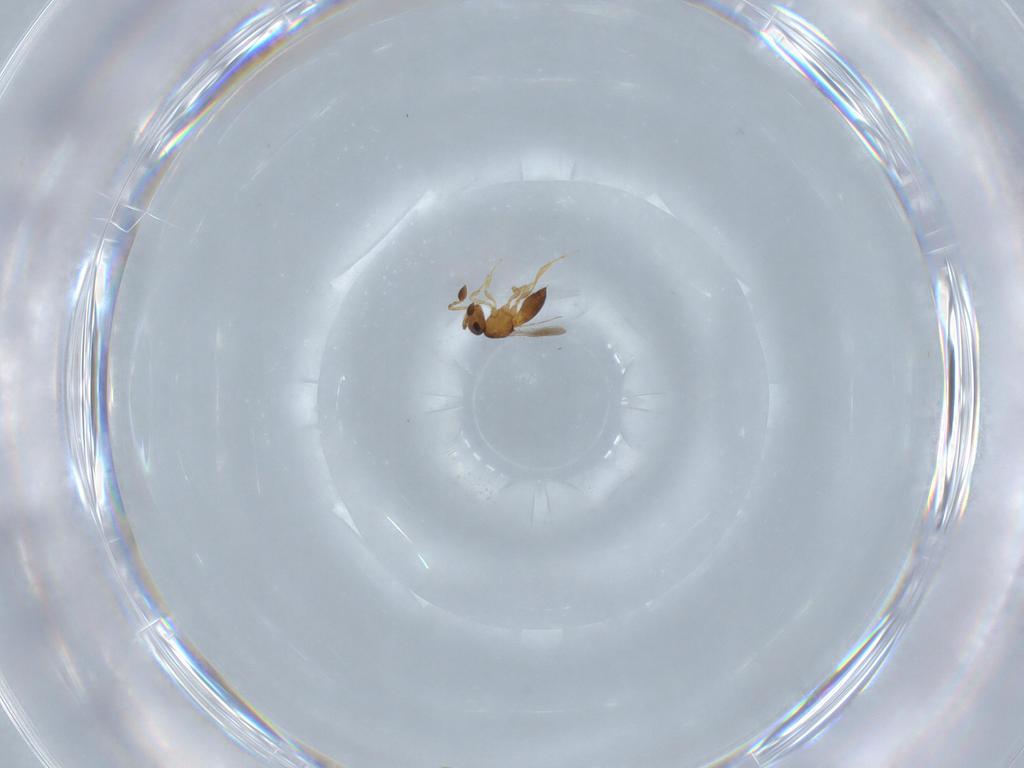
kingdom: Animalia
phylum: Arthropoda
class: Insecta
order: Hymenoptera
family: Scelionidae
